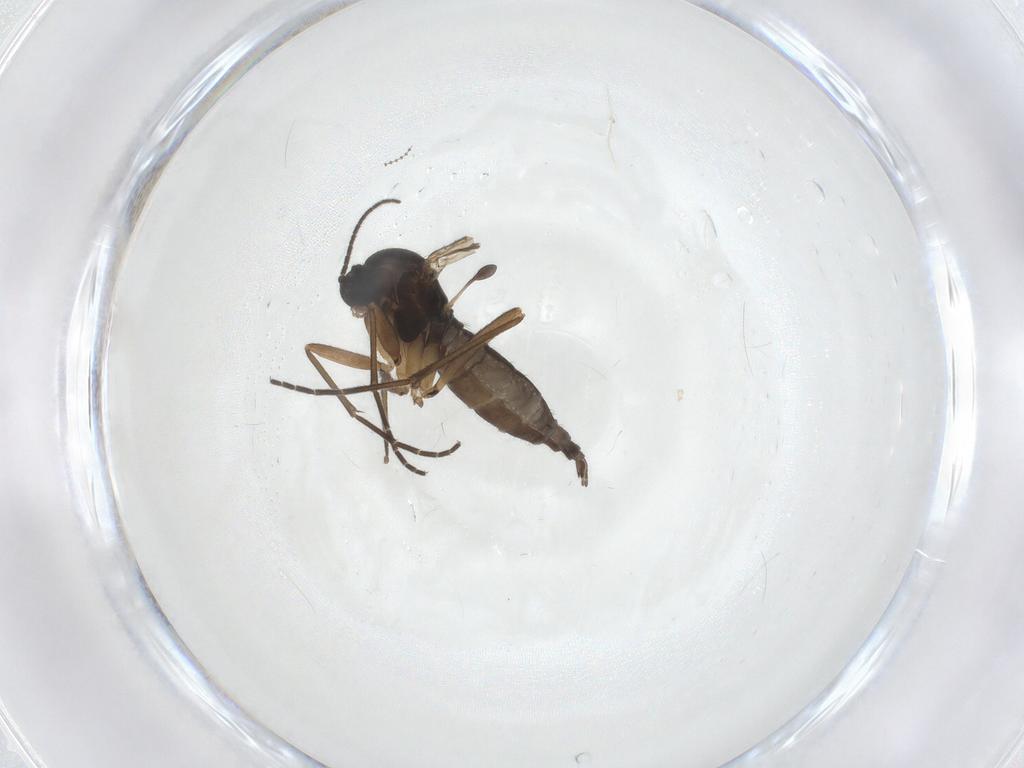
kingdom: Animalia
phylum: Arthropoda
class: Insecta
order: Diptera
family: Sciaridae
